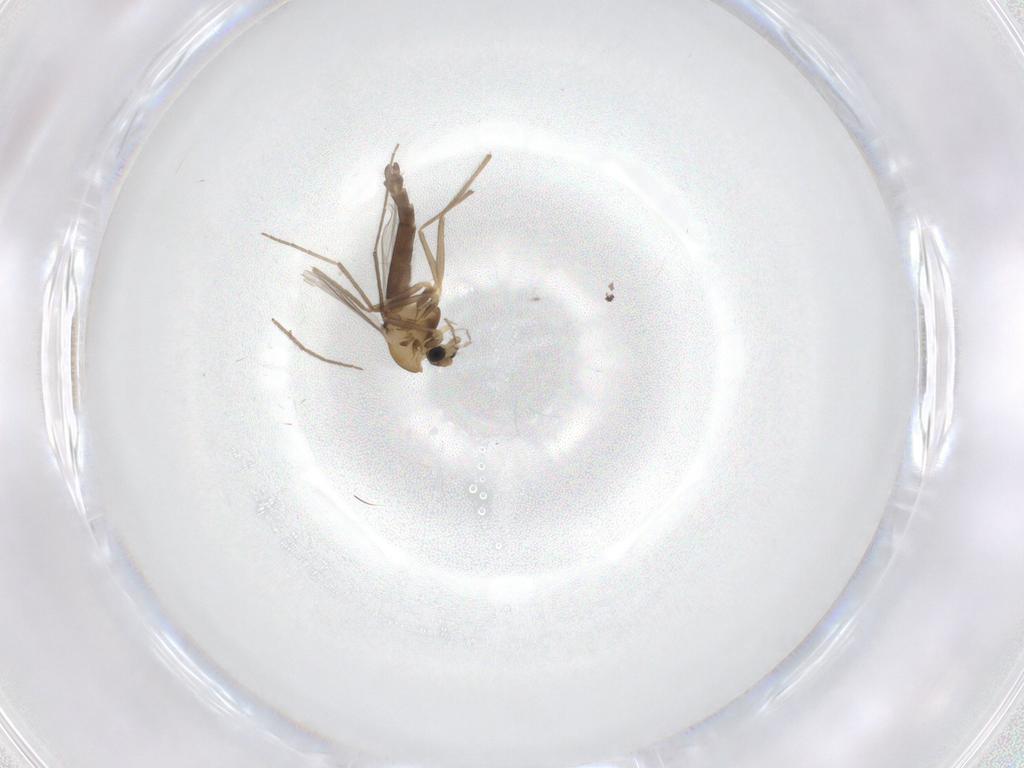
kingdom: Animalia
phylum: Arthropoda
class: Insecta
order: Diptera
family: Chironomidae
